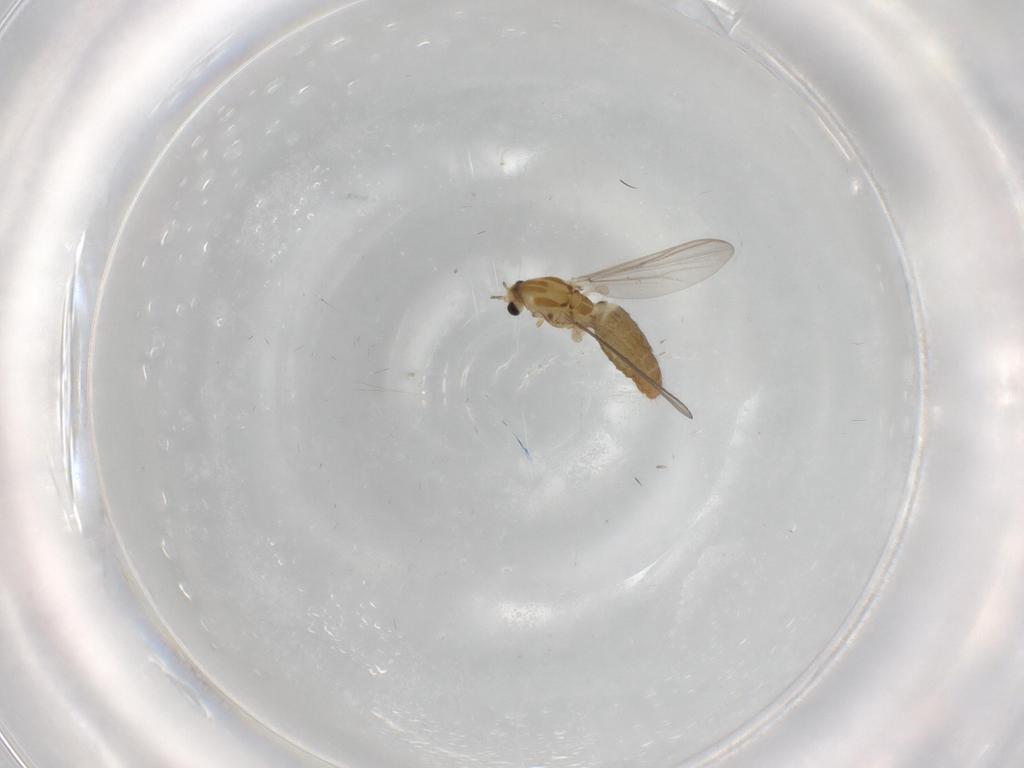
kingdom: Animalia
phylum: Arthropoda
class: Insecta
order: Diptera
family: Chironomidae
